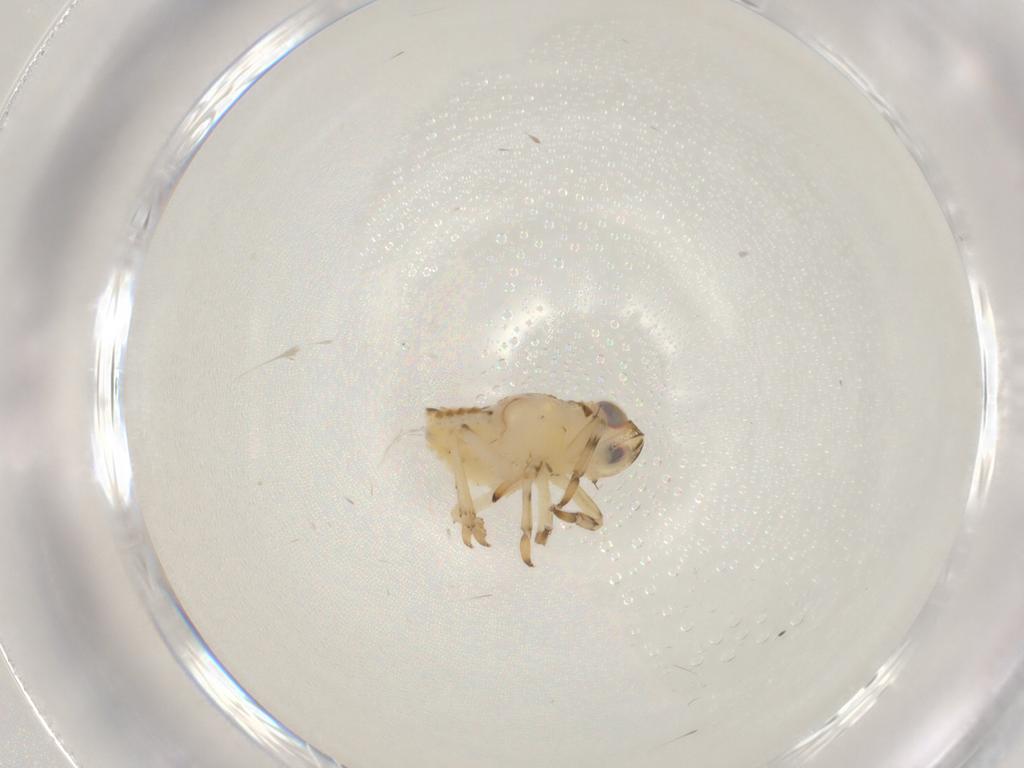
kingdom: Animalia
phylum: Arthropoda
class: Insecta
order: Hemiptera
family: Issidae
